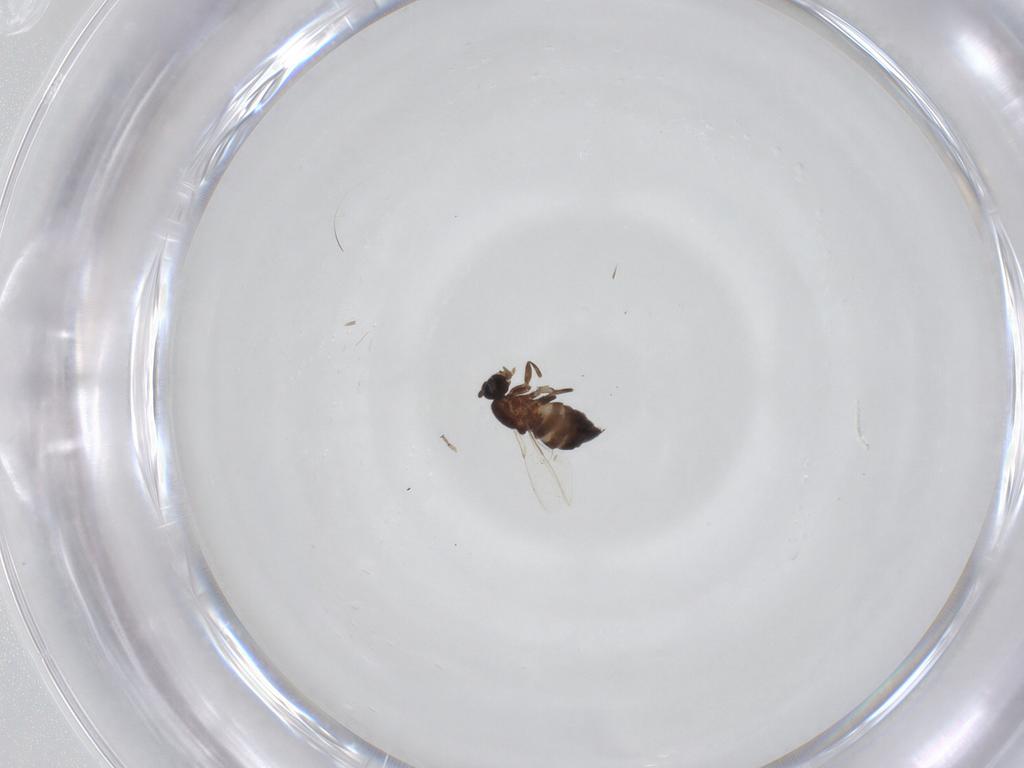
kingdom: Animalia
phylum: Arthropoda
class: Insecta
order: Diptera
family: Scatopsidae
